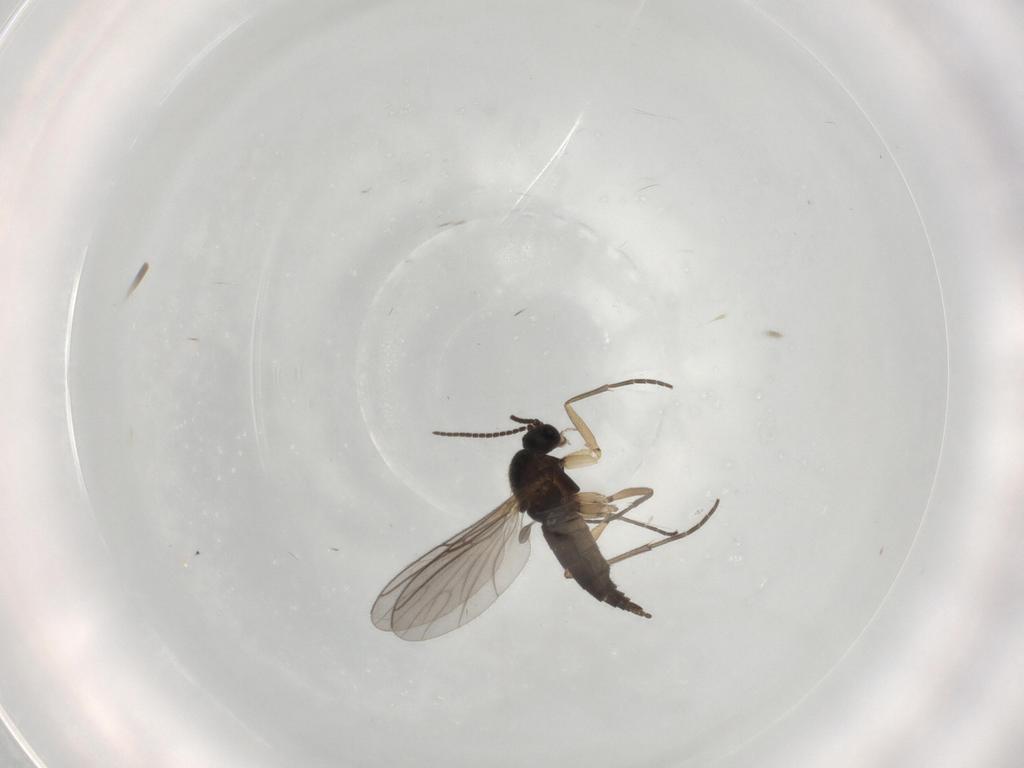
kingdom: Animalia
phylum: Arthropoda
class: Insecta
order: Diptera
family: Sciaridae
